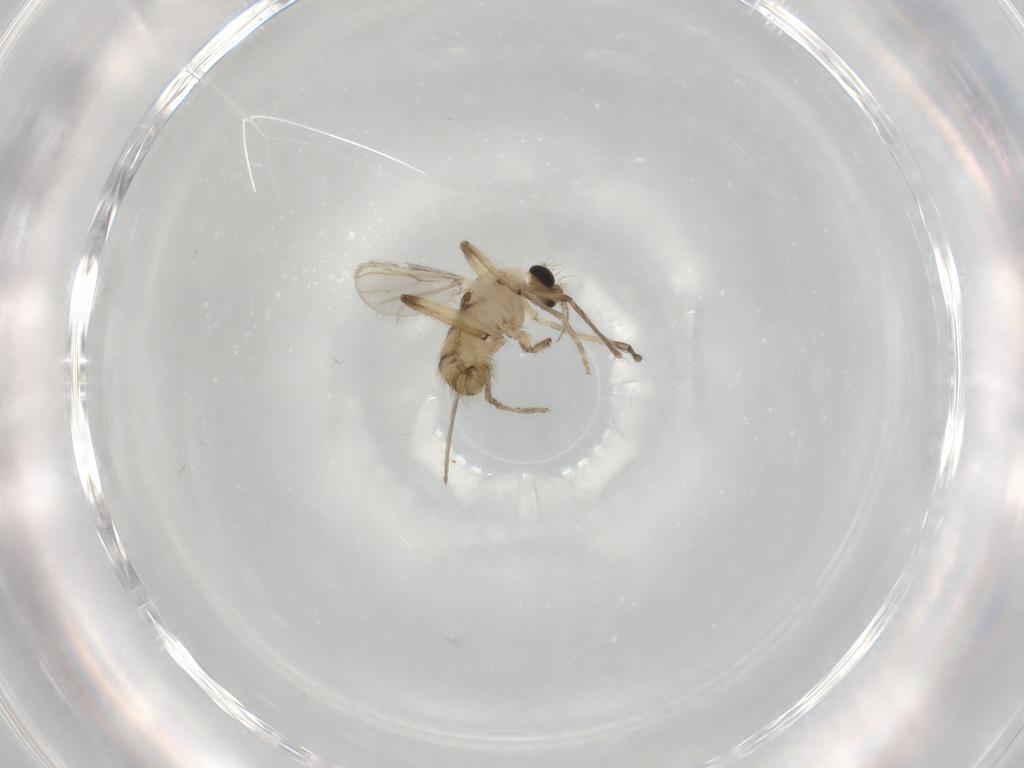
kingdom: Animalia
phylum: Arthropoda
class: Insecta
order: Diptera
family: Chironomidae
